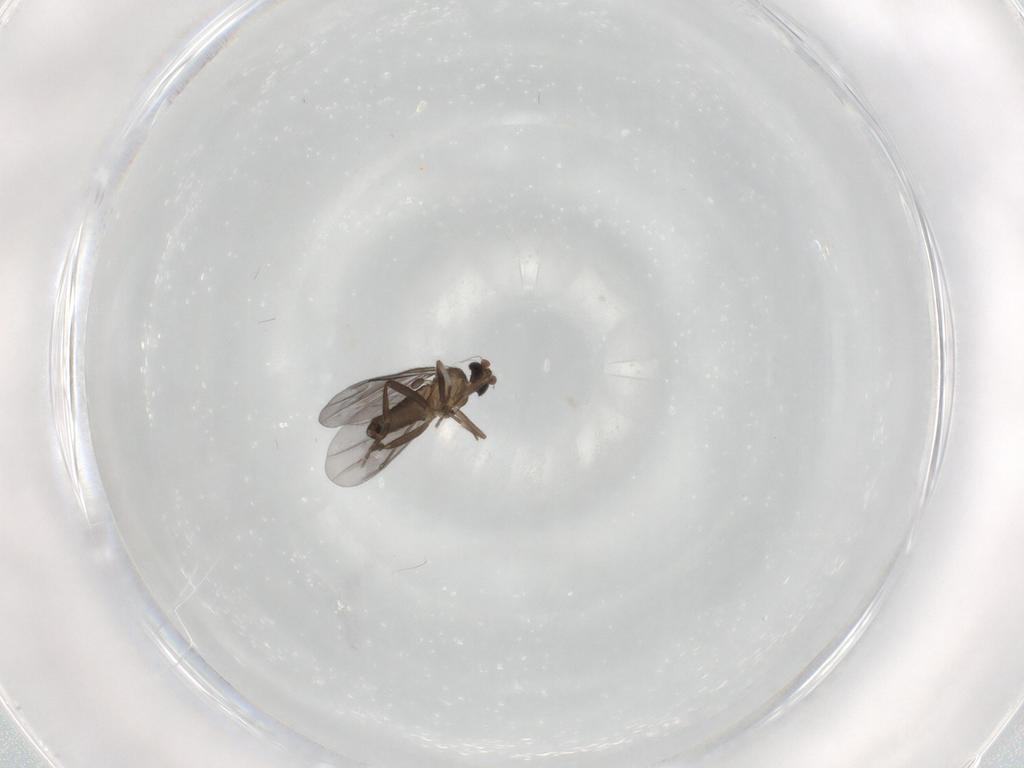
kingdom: Animalia
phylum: Arthropoda
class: Insecta
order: Diptera
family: Phoridae
